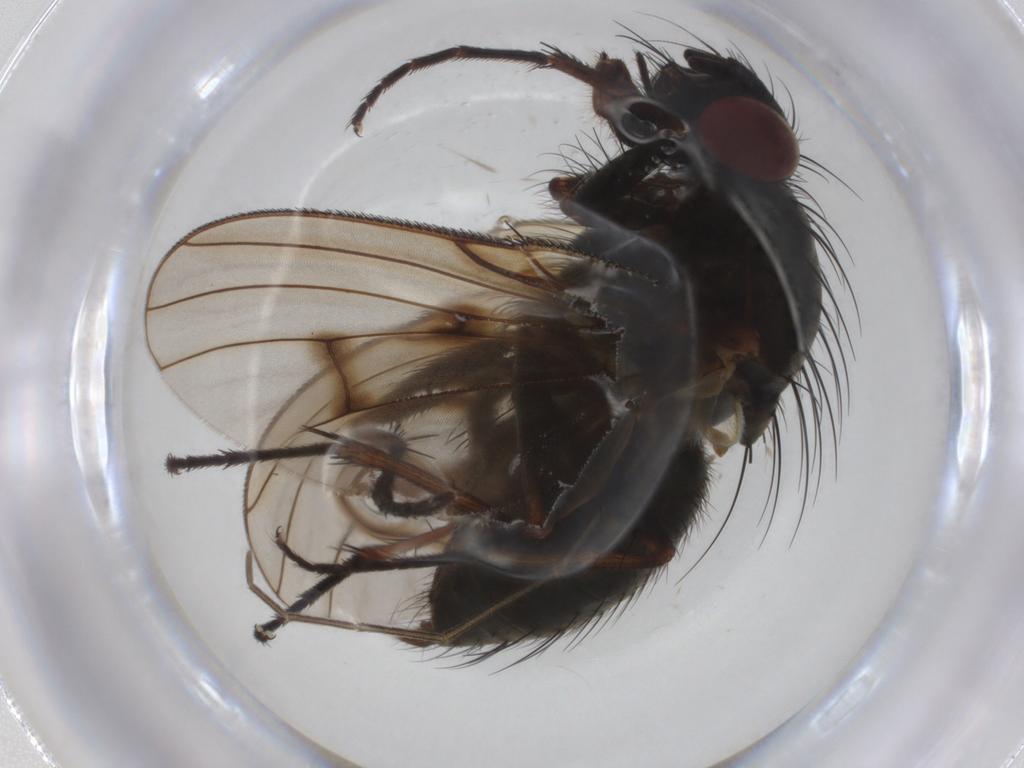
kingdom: Animalia
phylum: Arthropoda
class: Insecta
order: Diptera
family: Muscidae
